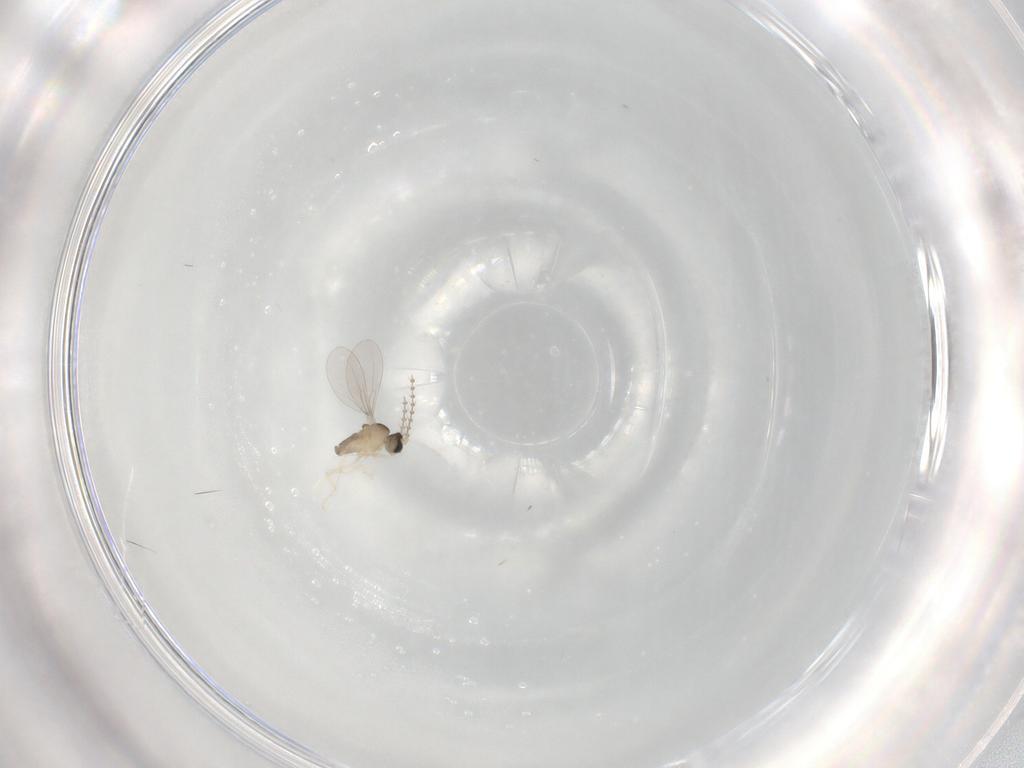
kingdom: Animalia
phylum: Arthropoda
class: Insecta
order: Diptera
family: Cecidomyiidae
